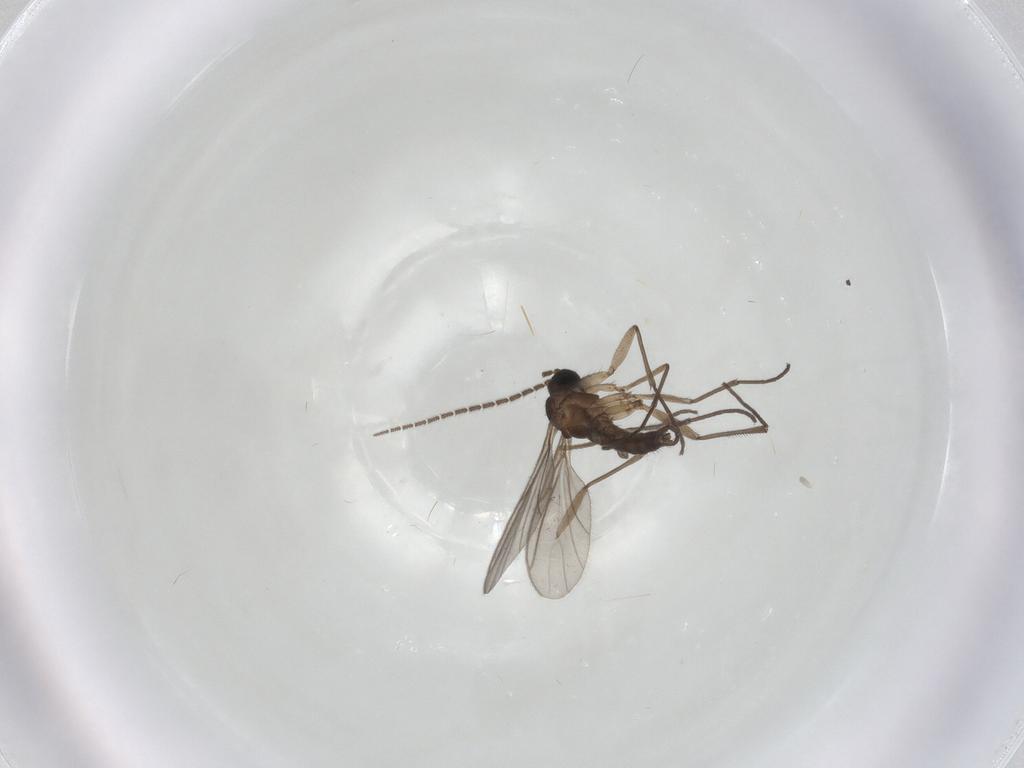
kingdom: Animalia
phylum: Arthropoda
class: Insecta
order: Diptera
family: Sciaridae
